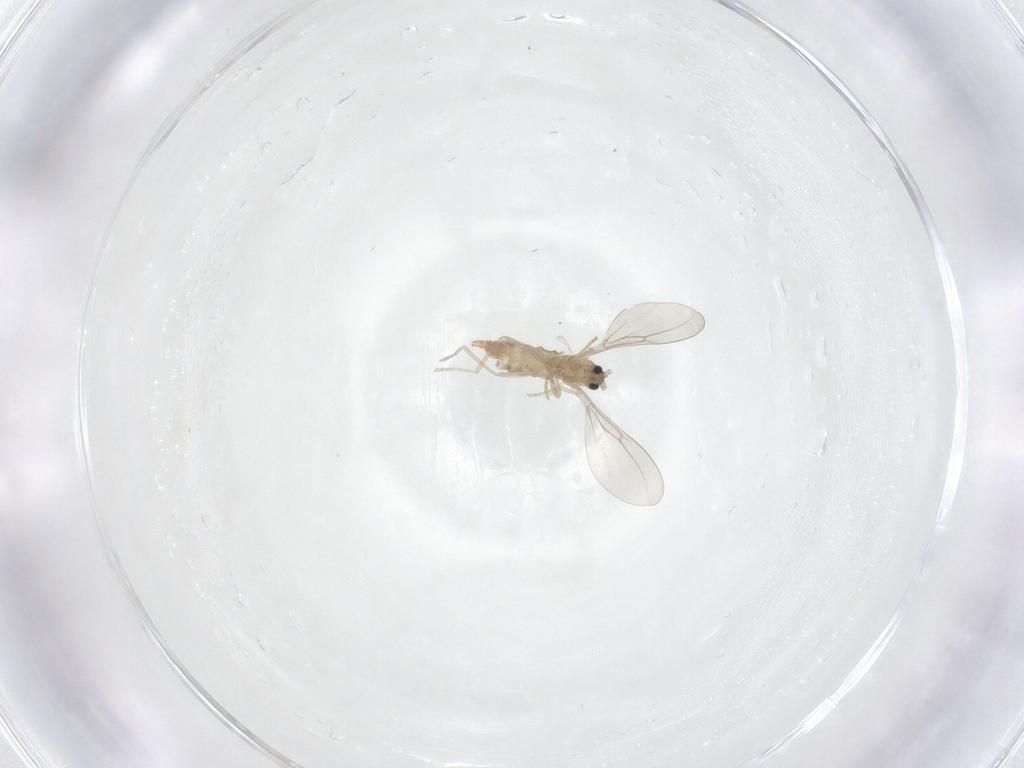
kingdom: Animalia
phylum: Arthropoda
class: Insecta
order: Diptera
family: Cecidomyiidae
